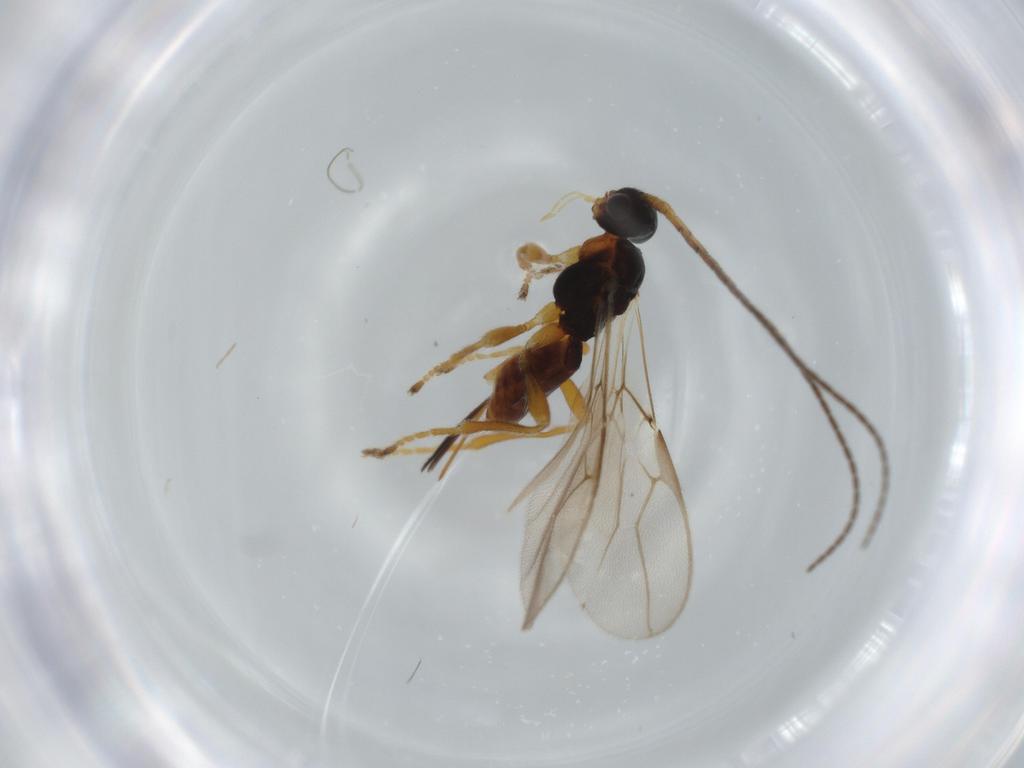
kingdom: Animalia
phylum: Arthropoda
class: Insecta
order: Hymenoptera
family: Braconidae
